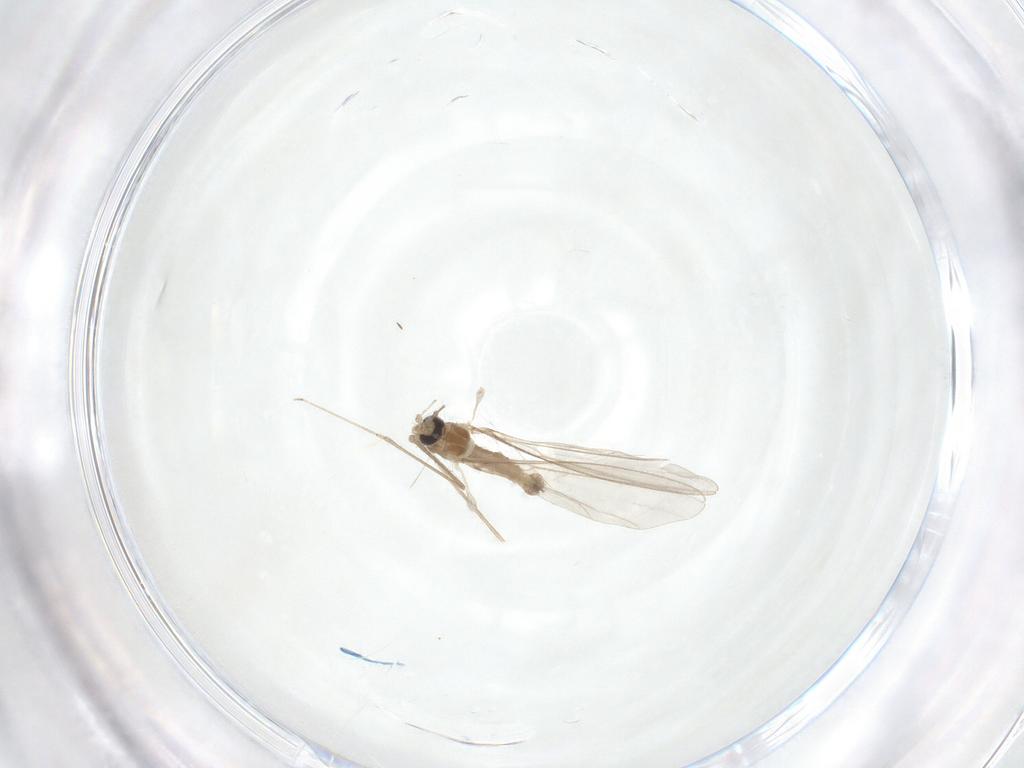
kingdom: Animalia
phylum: Arthropoda
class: Insecta
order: Diptera
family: Cecidomyiidae
